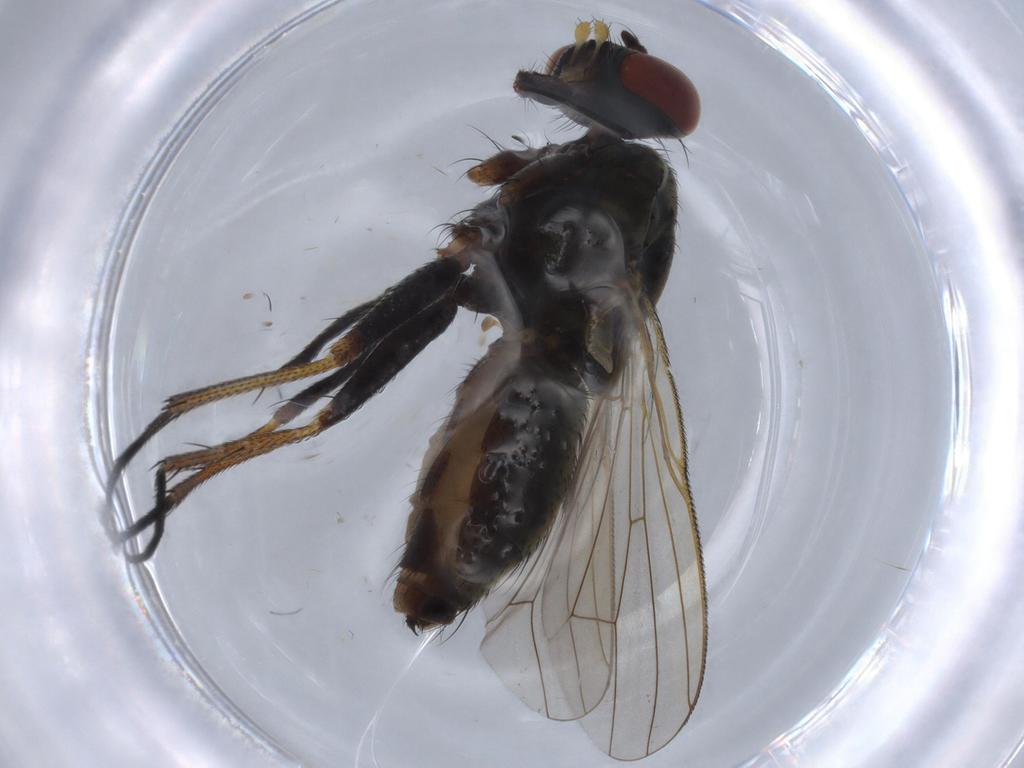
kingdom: Animalia
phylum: Arthropoda
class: Insecta
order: Diptera
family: Muscidae
